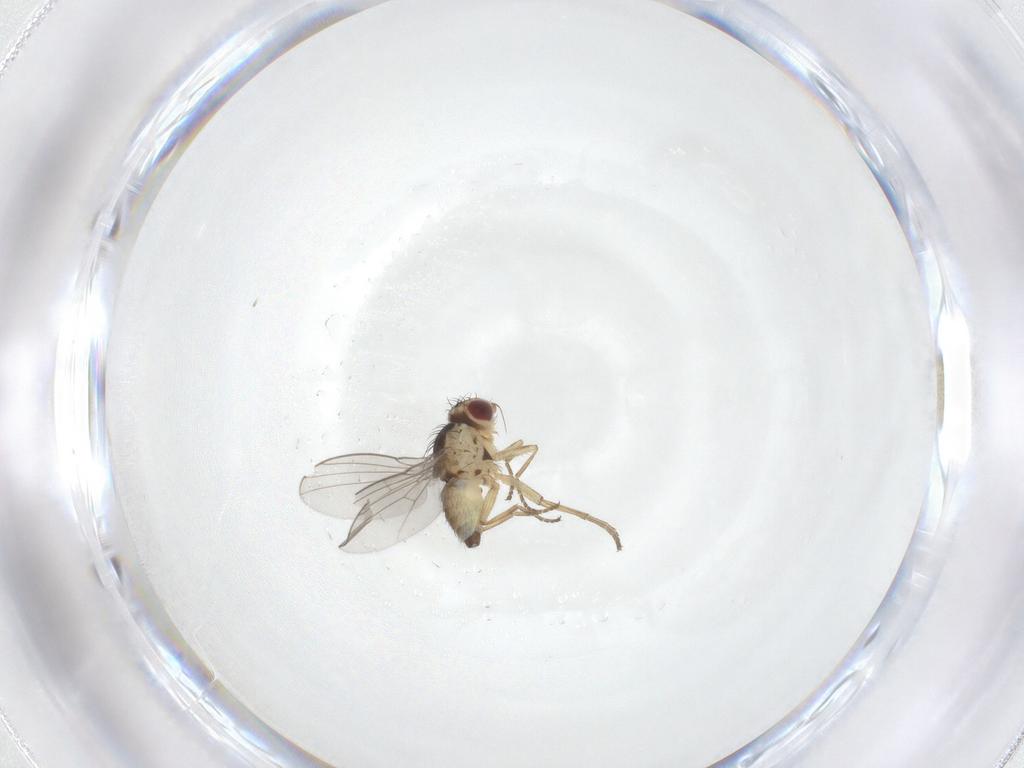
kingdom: Animalia
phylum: Arthropoda
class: Insecta
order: Diptera
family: Agromyzidae
